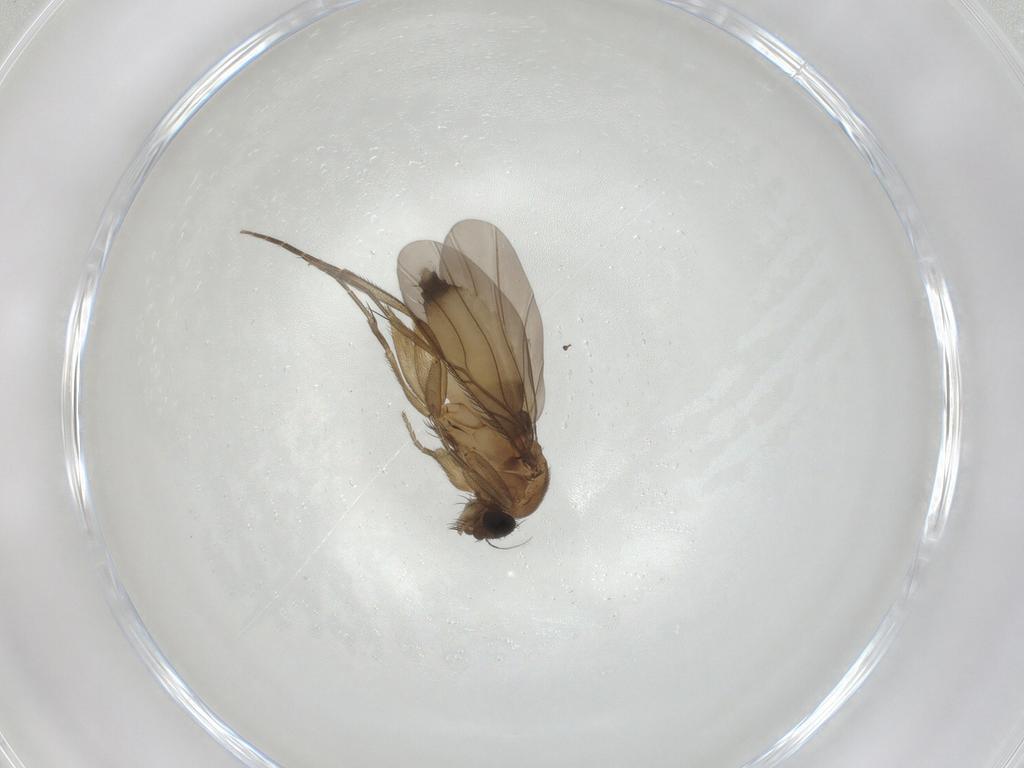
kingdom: Animalia
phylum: Arthropoda
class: Insecta
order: Diptera
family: Phoridae
